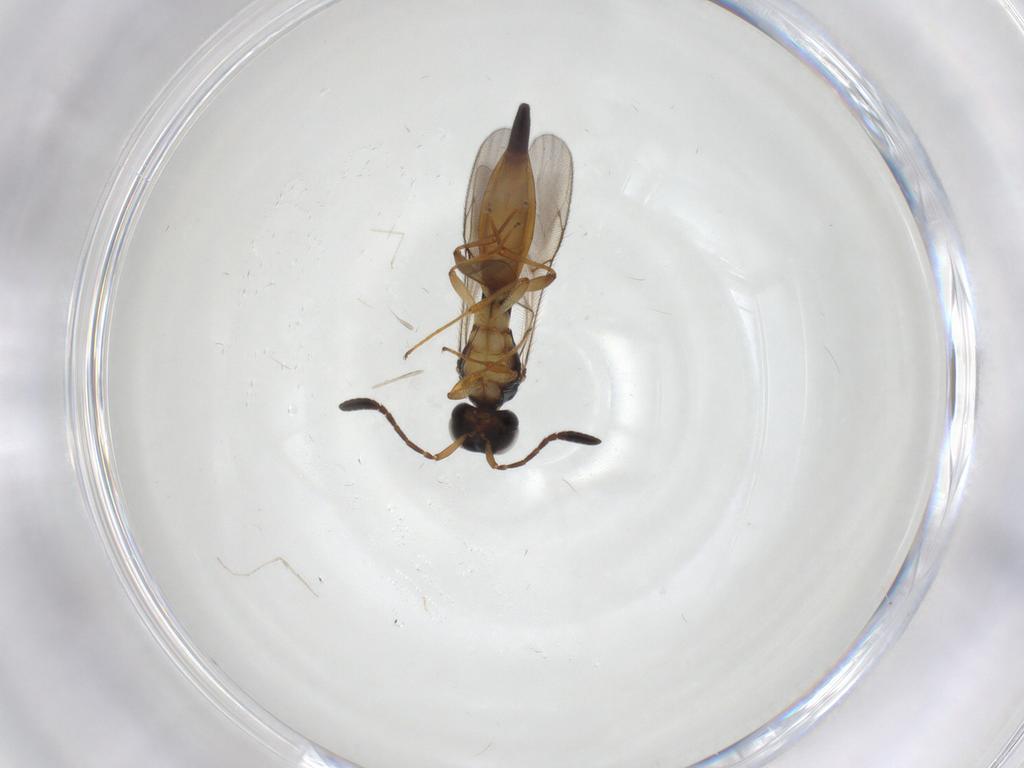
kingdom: Animalia
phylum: Arthropoda
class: Insecta
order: Hymenoptera
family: Scelionidae
